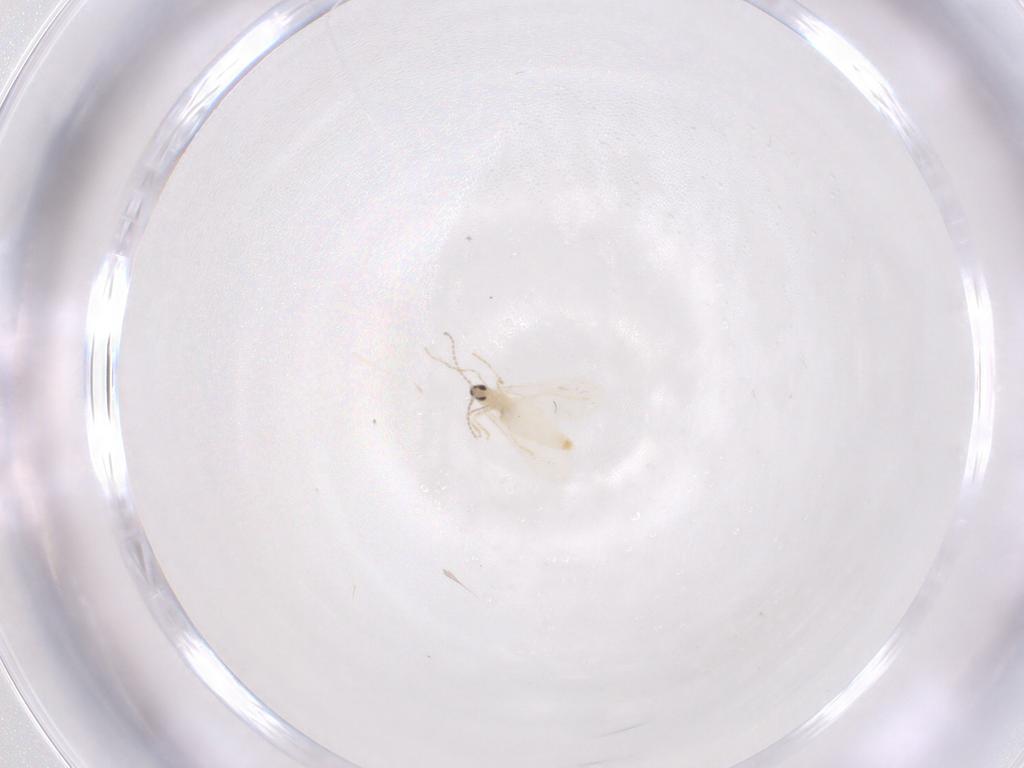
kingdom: Animalia
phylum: Arthropoda
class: Insecta
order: Diptera
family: Cecidomyiidae
